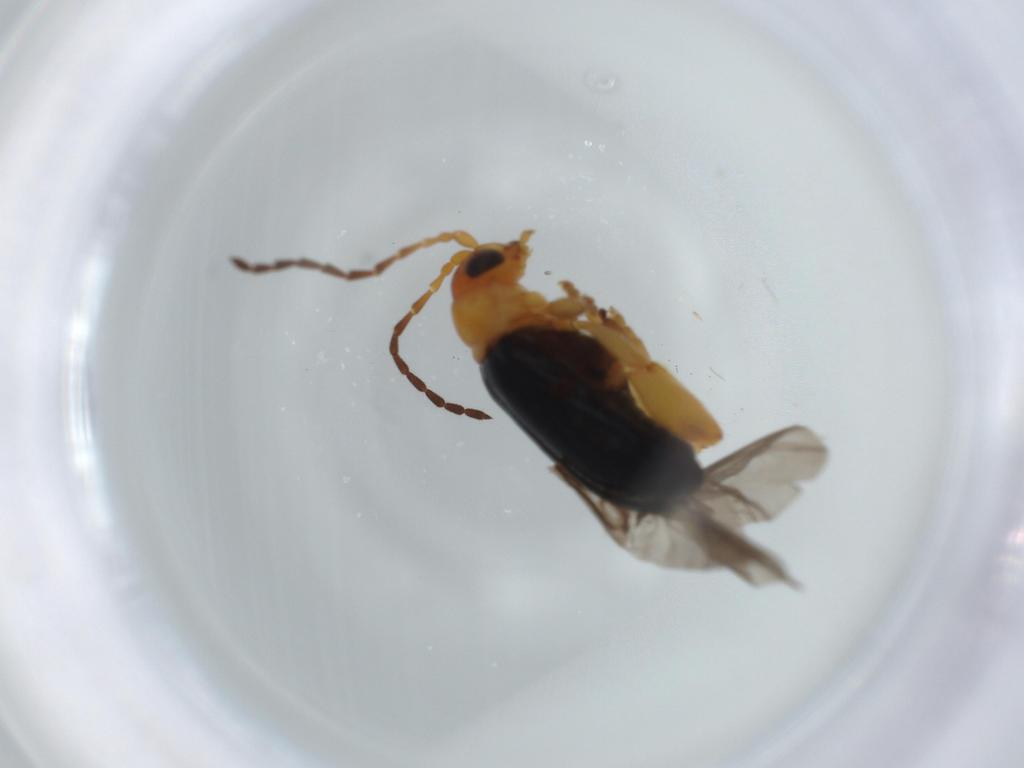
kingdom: Animalia
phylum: Arthropoda
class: Insecta
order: Coleoptera
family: Chrysomelidae
